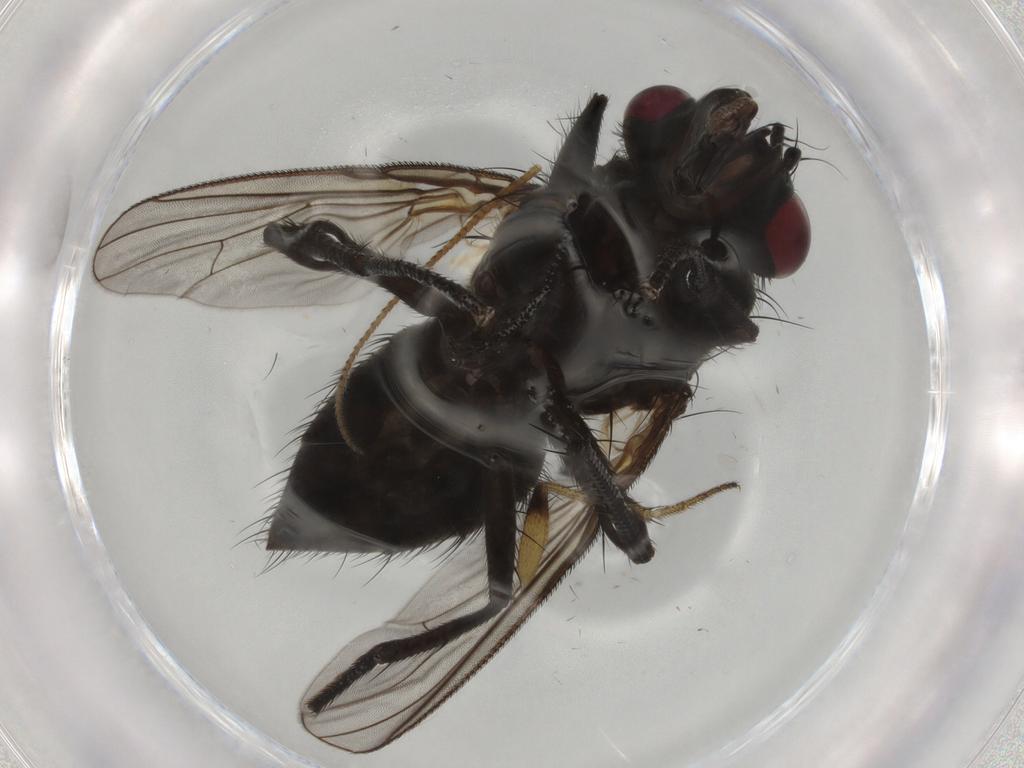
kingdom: Animalia
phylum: Arthropoda
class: Insecta
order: Diptera
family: Muscidae
